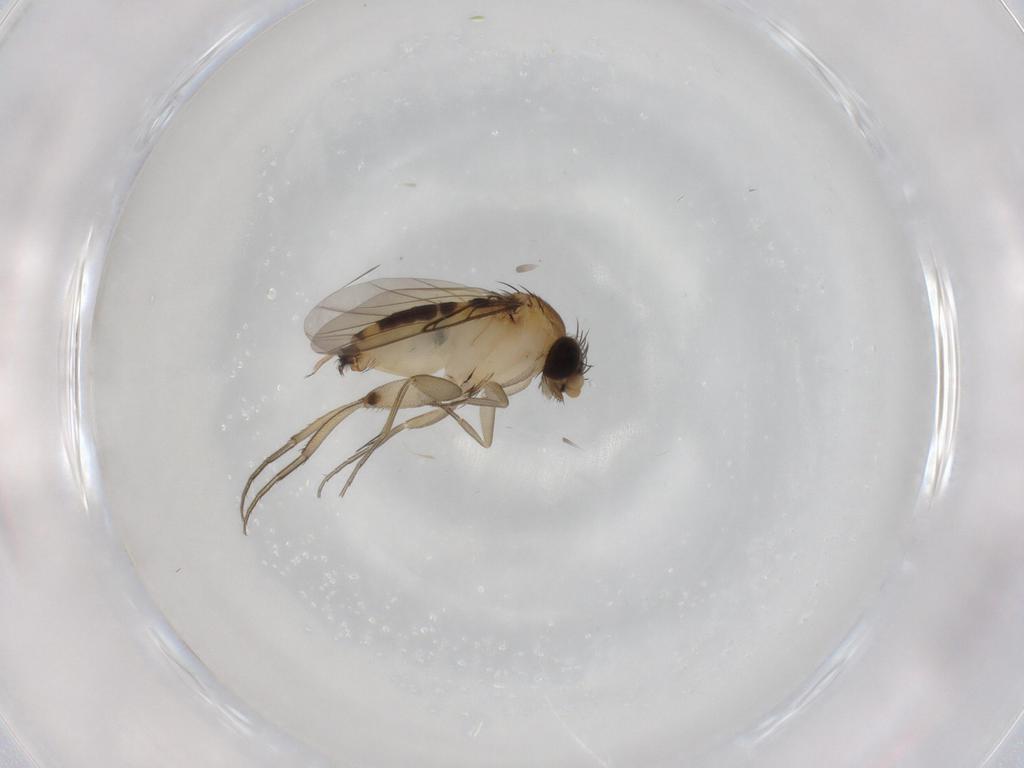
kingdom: Animalia
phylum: Arthropoda
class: Insecta
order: Diptera
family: Phoridae
